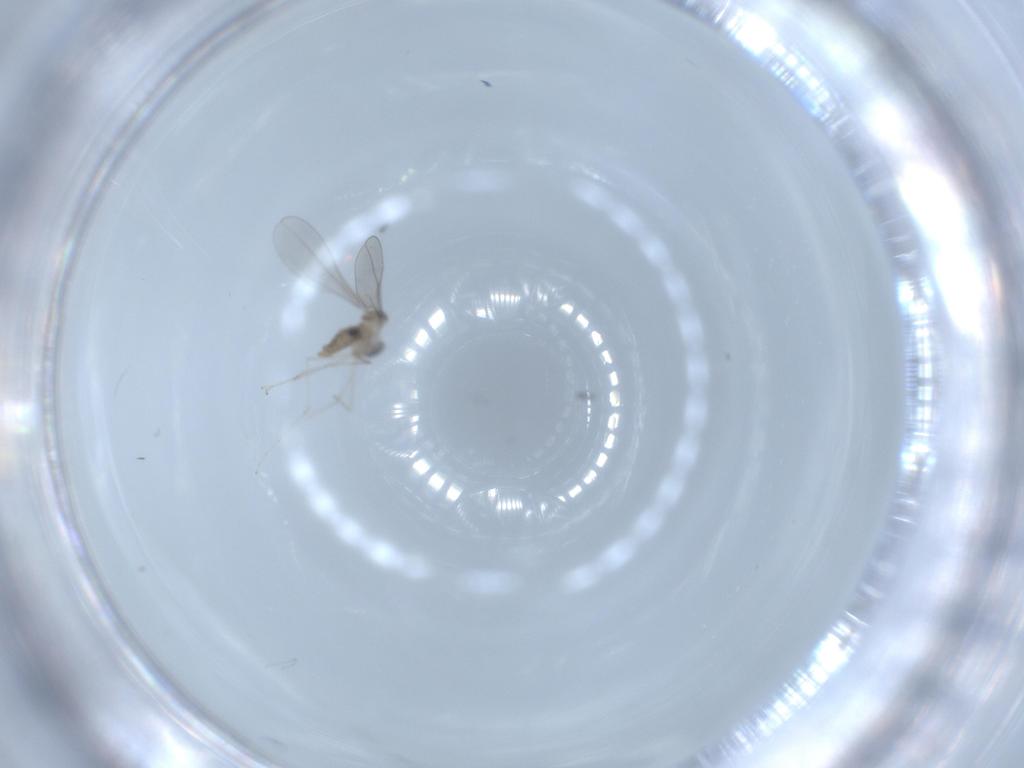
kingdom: Animalia
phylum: Arthropoda
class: Insecta
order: Diptera
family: Cecidomyiidae
